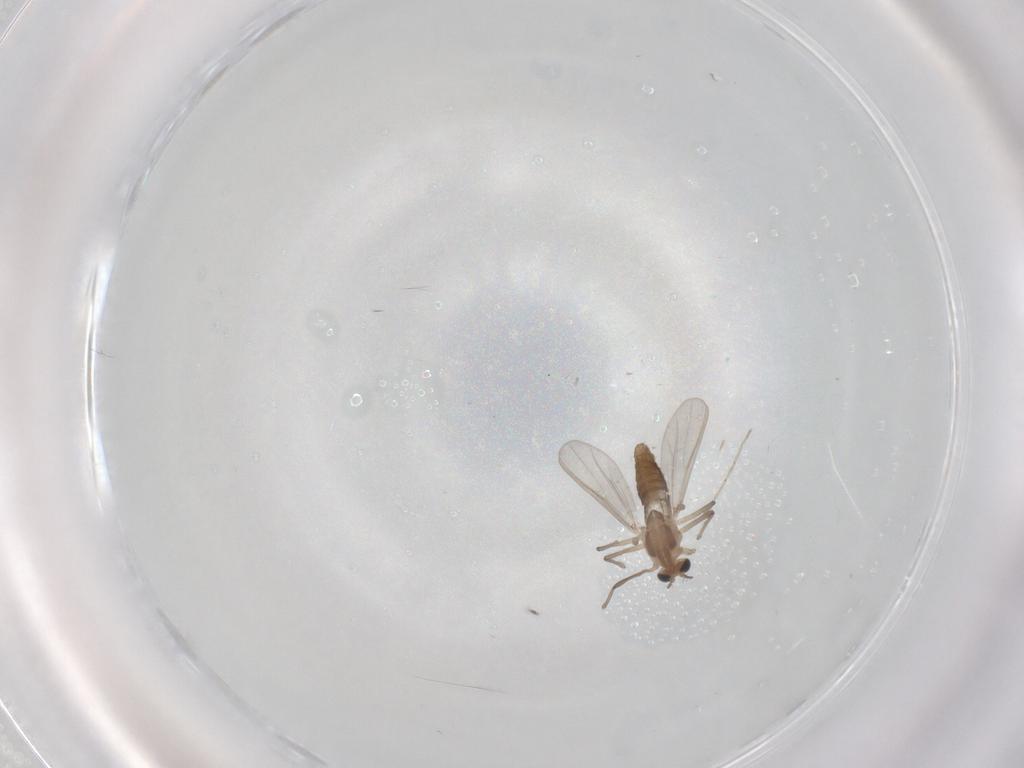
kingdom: Animalia
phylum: Arthropoda
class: Insecta
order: Diptera
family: Chironomidae
